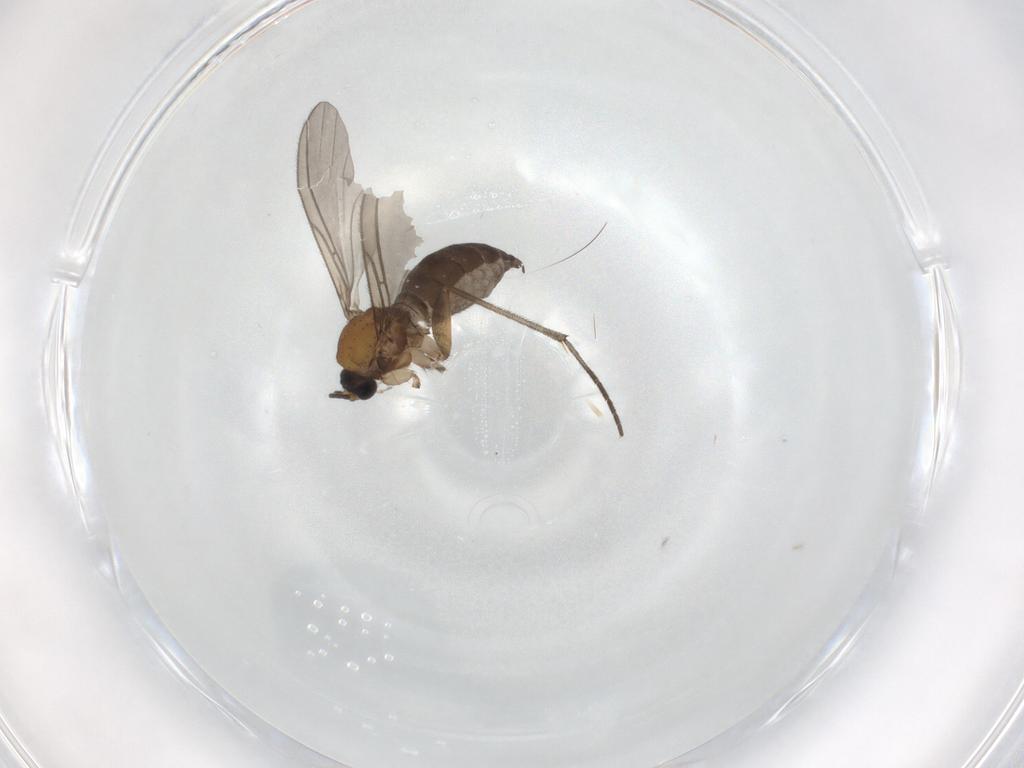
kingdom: Animalia
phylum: Arthropoda
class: Insecta
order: Diptera
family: Sciaridae
